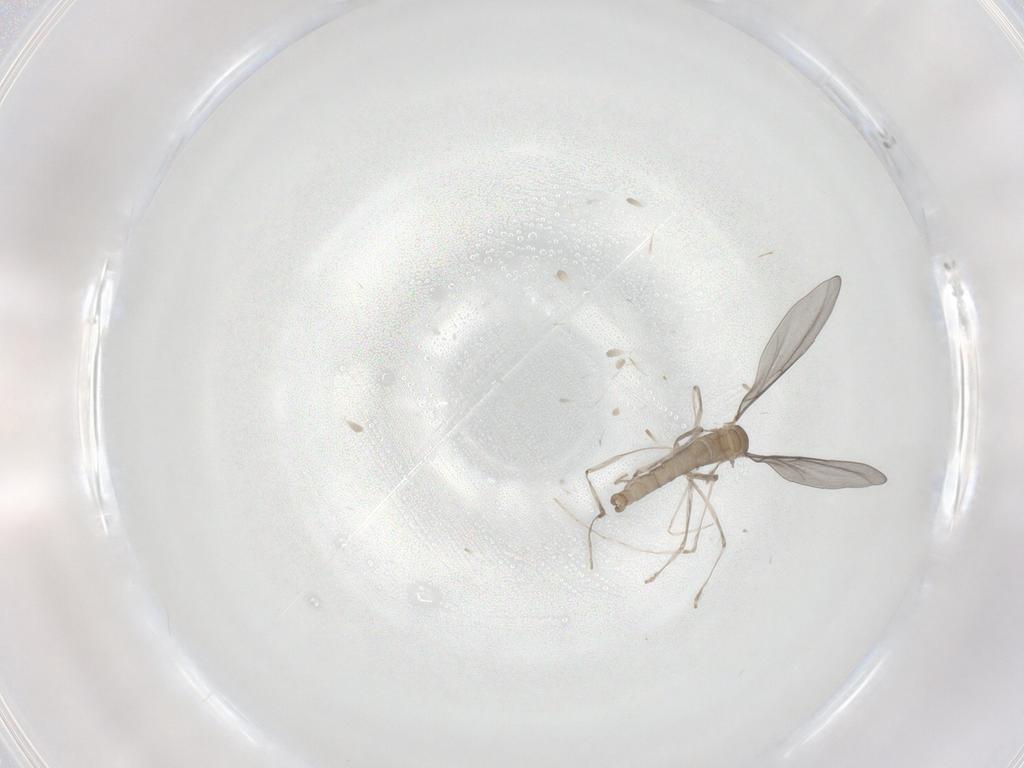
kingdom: Animalia
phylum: Arthropoda
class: Insecta
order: Diptera
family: Cecidomyiidae
